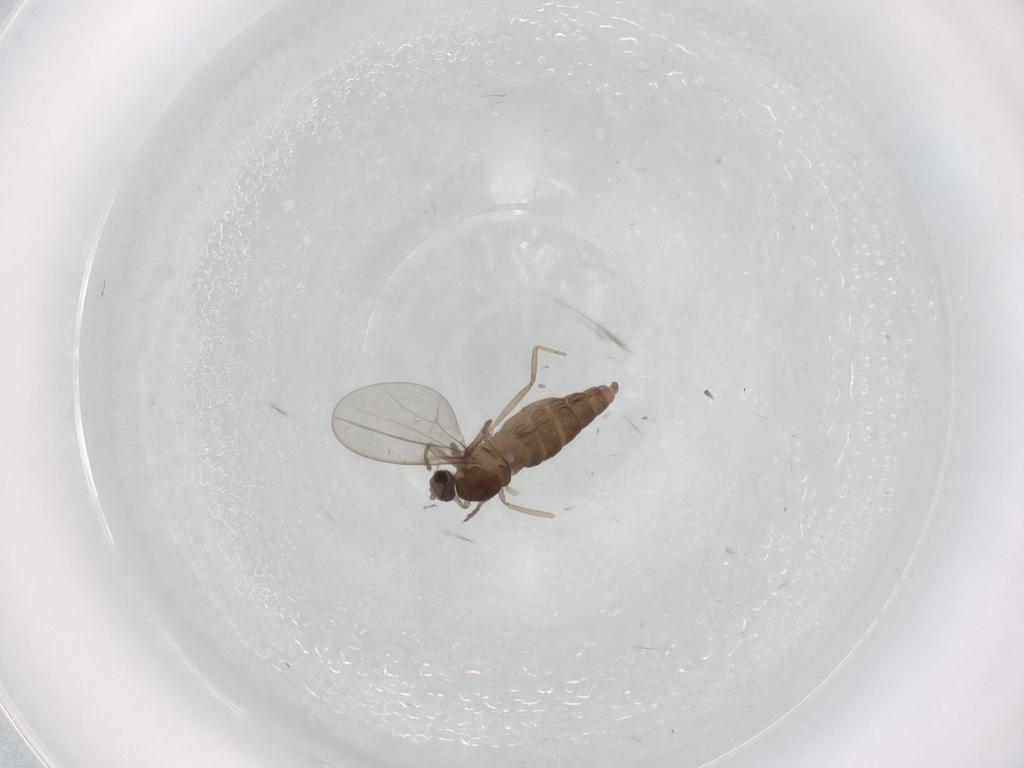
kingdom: Animalia
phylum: Arthropoda
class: Insecta
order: Diptera
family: Cecidomyiidae
